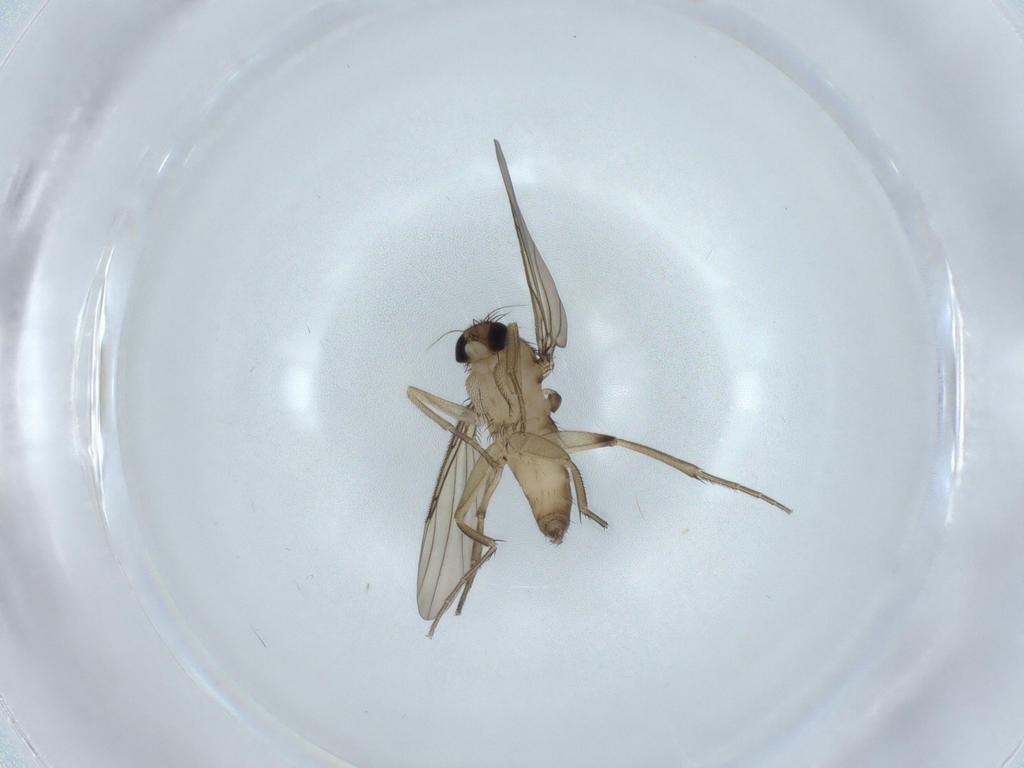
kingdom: Animalia
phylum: Arthropoda
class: Insecta
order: Diptera
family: Phoridae
